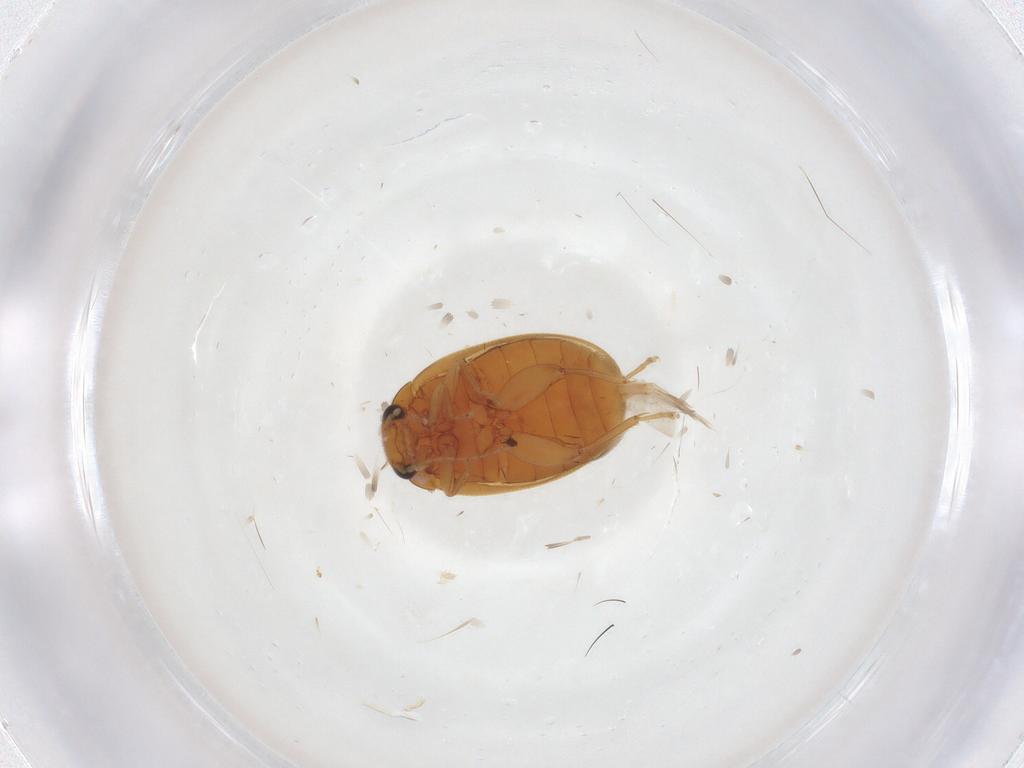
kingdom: Animalia
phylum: Arthropoda
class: Insecta
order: Coleoptera
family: Scirtidae
